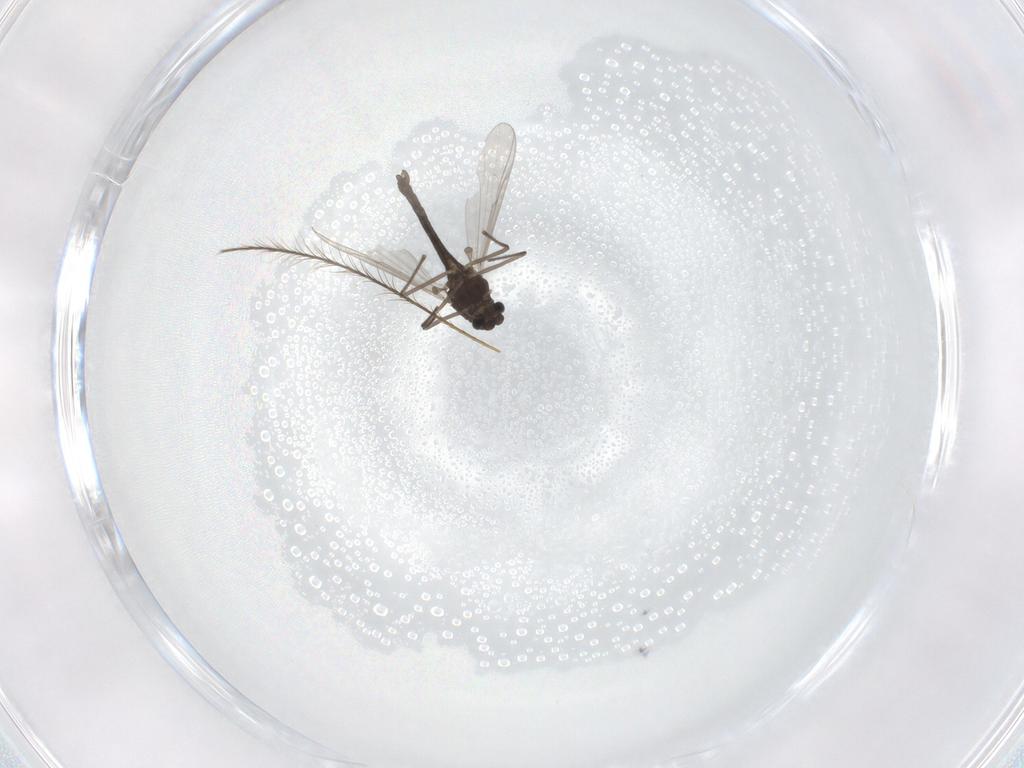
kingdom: Animalia
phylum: Arthropoda
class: Insecta
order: Diptera
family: Chironomidae
